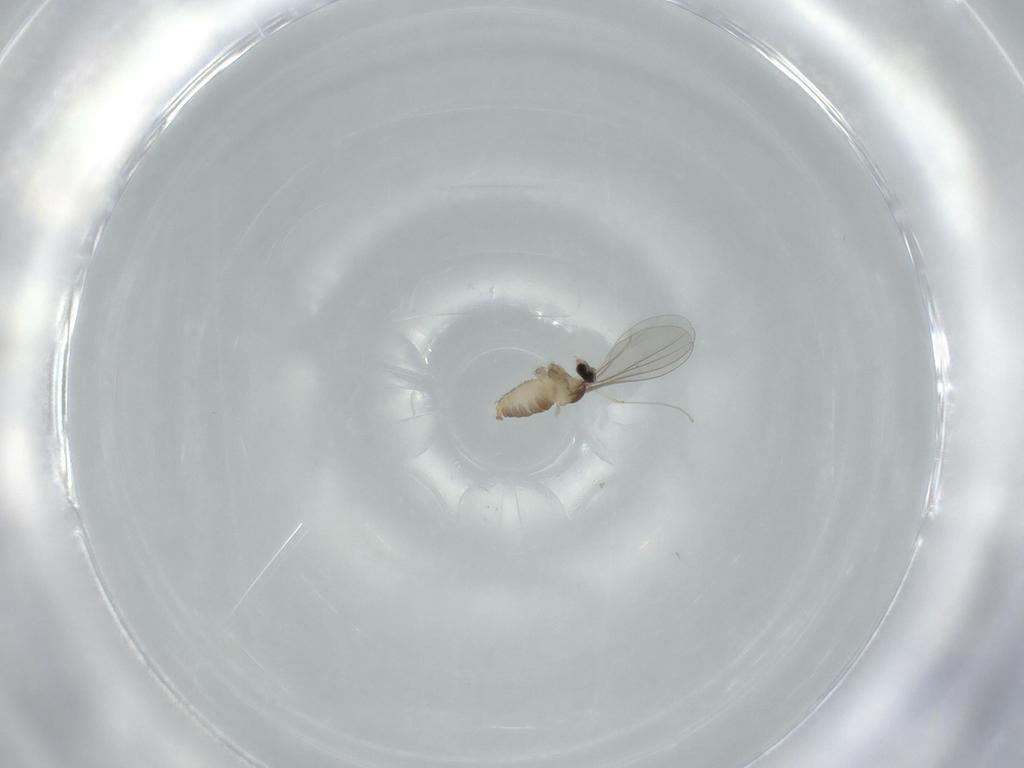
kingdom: Animalia
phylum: Arthropoda
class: Insecta
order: Diptera
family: Cecidomyiidae
